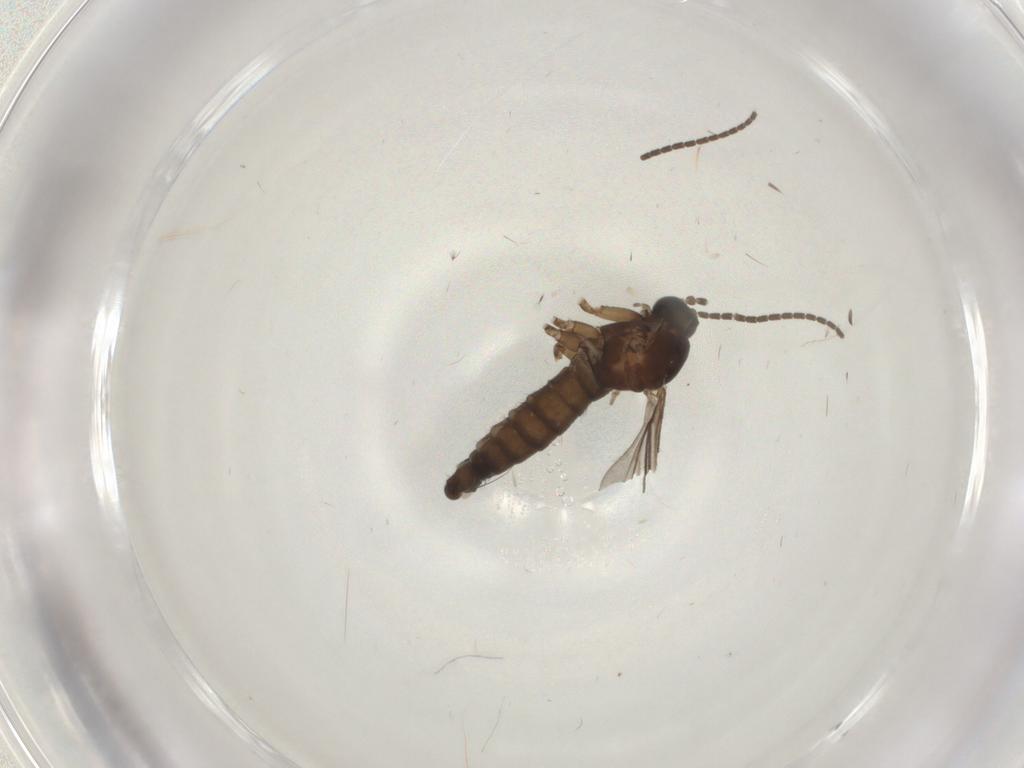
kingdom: Animalia
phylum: Arthropoda
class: Insecta
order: Diptera
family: Sciaridae
